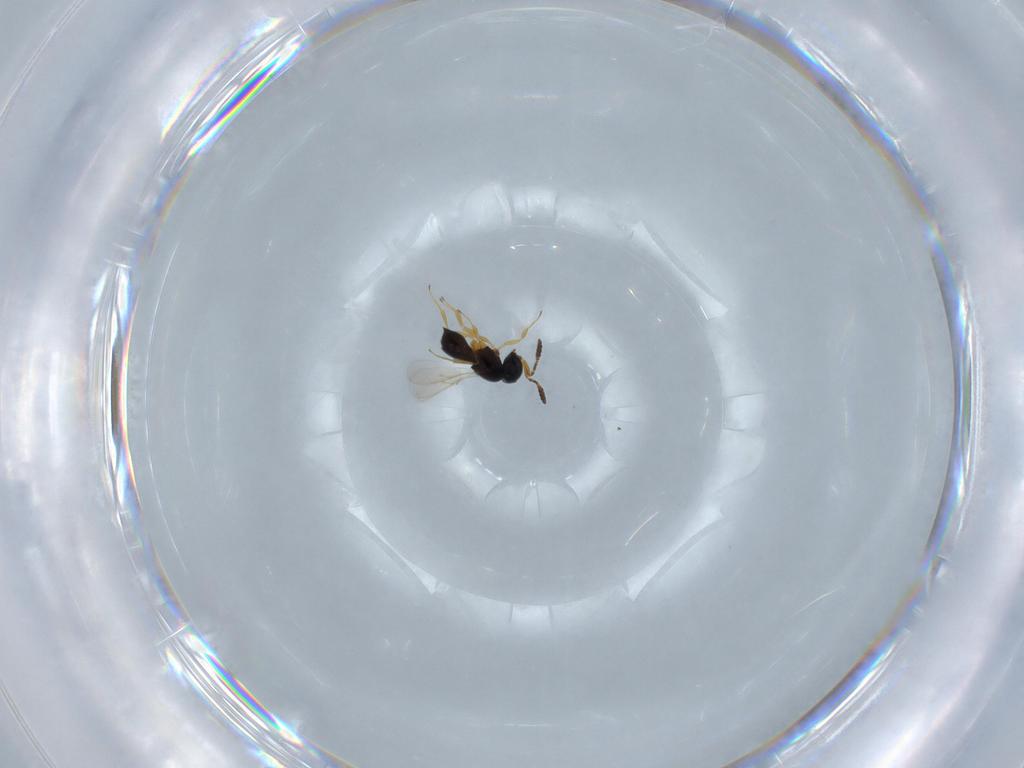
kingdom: Animalia
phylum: Arthropoda
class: Insecta
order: Hymenoptera
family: Scelionidae
